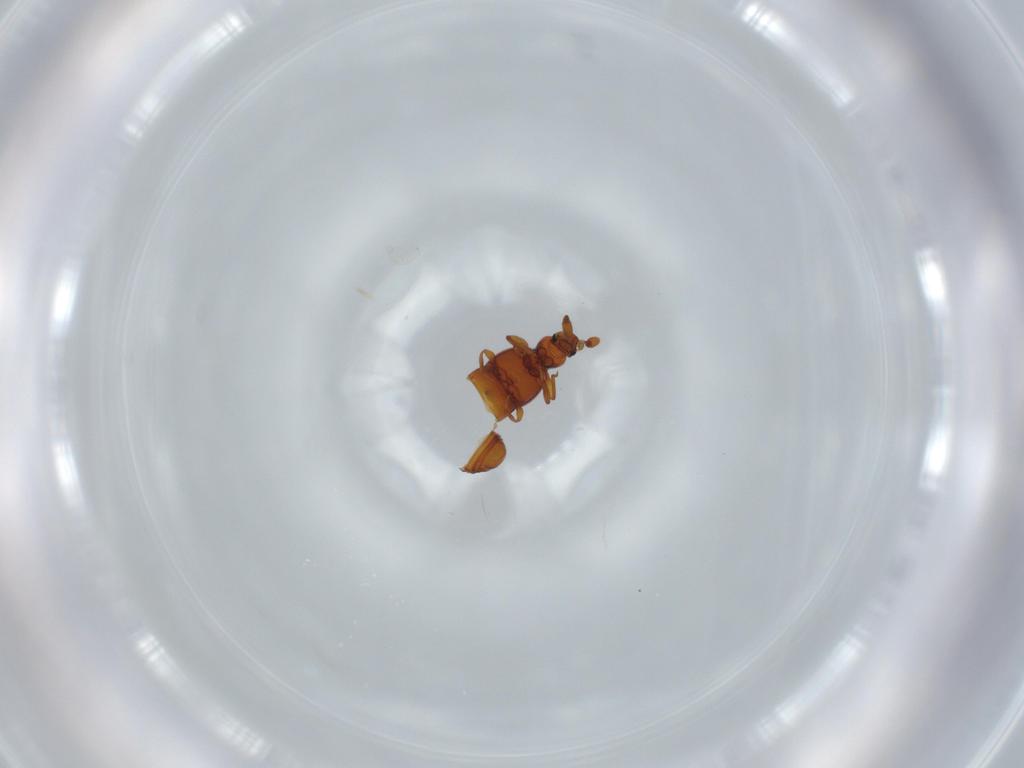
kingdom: Animalia
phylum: Arthropoda
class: Insecta
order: Coleoptera
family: Staphylinidae
